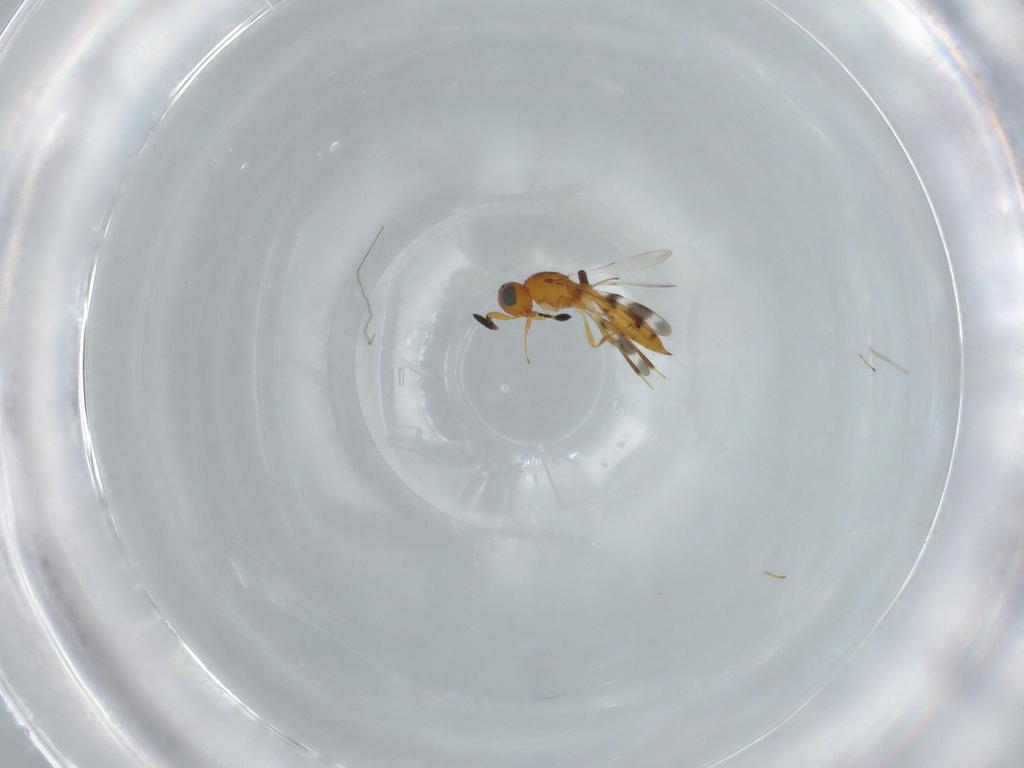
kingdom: Animalia
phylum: Arthropoda
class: Insecta
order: Hymenoptera
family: Scelionidae
